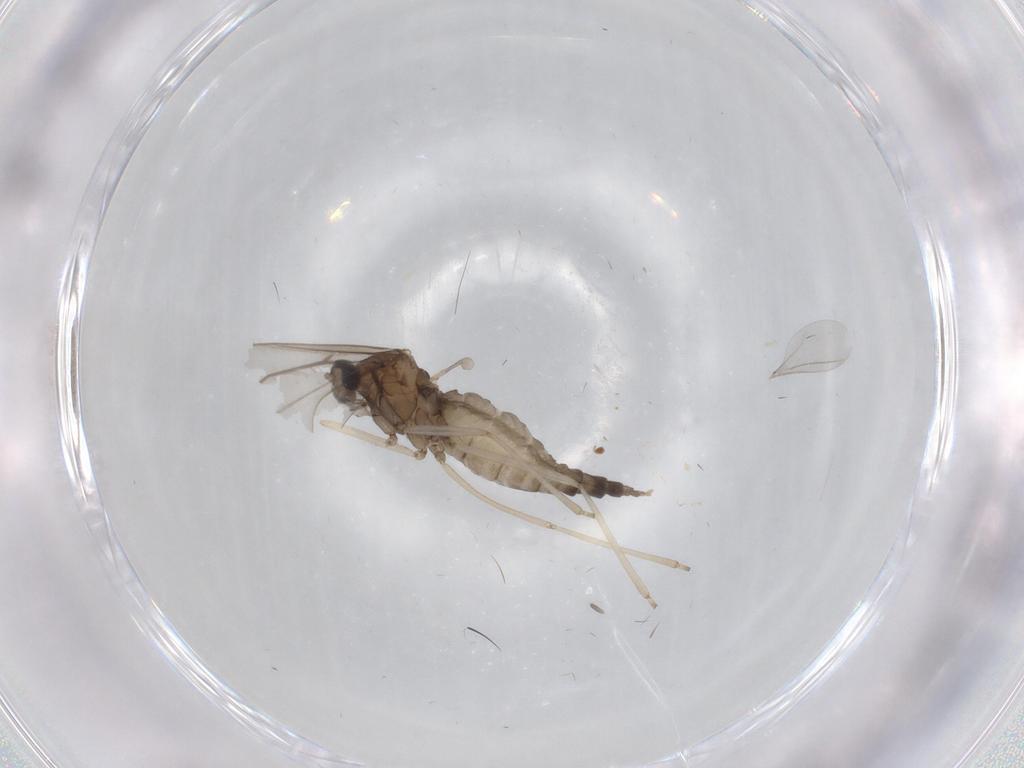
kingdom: Animalia
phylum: Arthropoda
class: Insecta
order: Diptera
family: Cecidomyiidae
